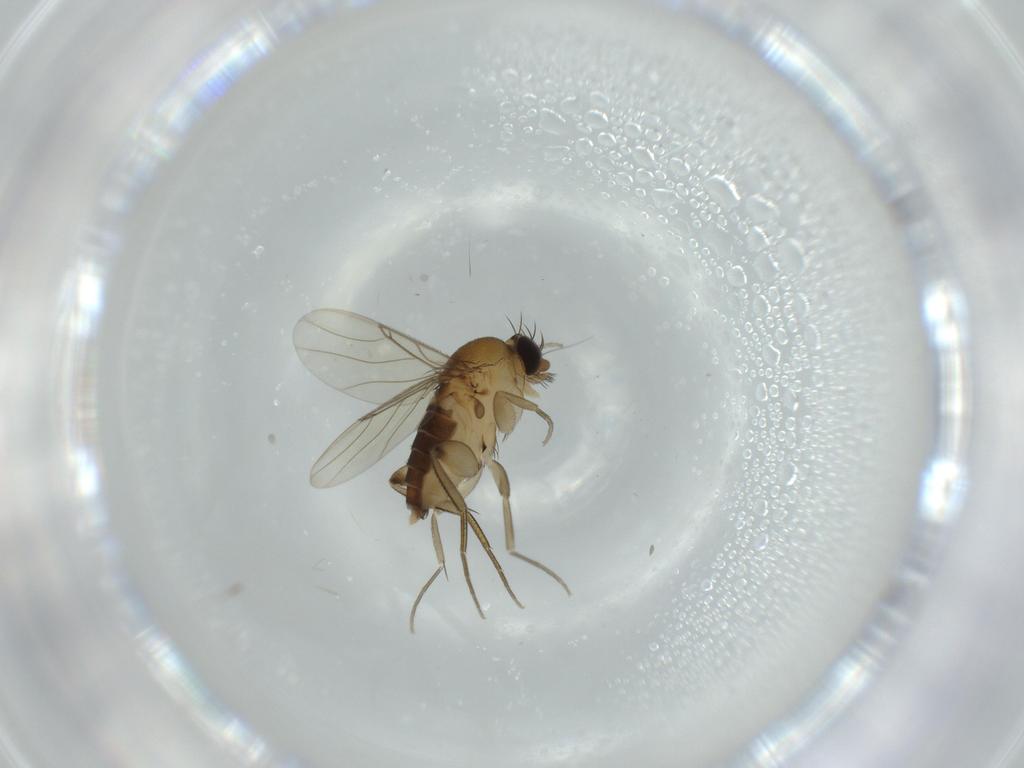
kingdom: Animalia
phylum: Arthropoda
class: Insecta
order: Diptera
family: Phoridae
